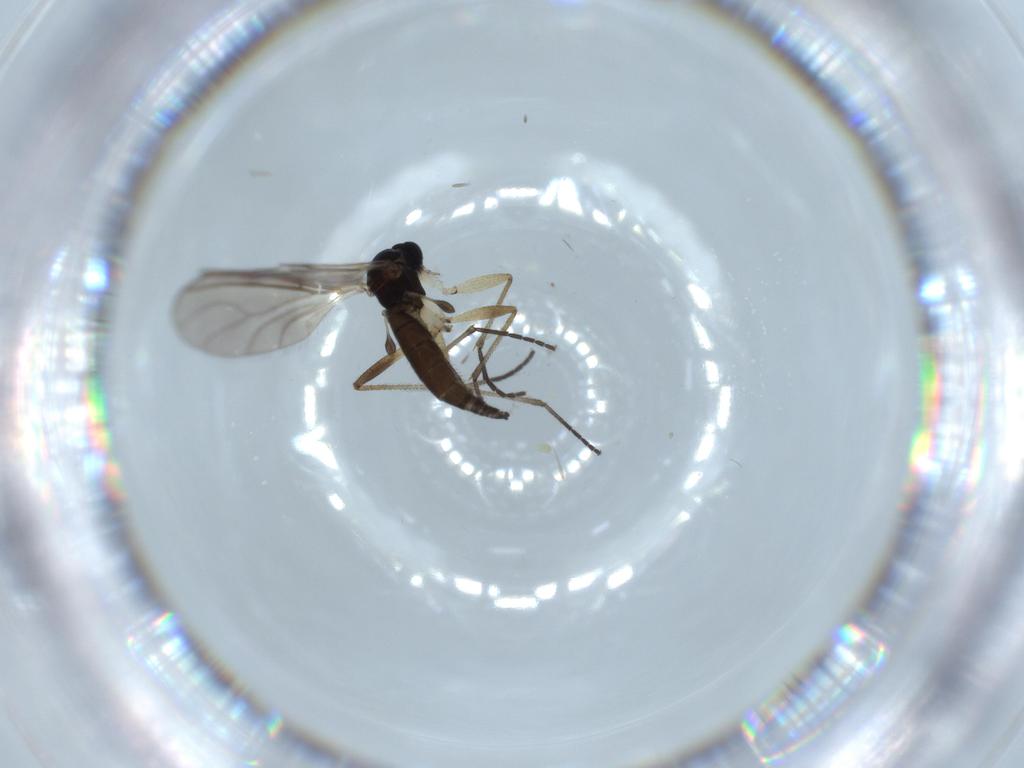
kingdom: Animalia
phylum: Arthropoda
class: Insecta
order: Diptera
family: Sciaridae
